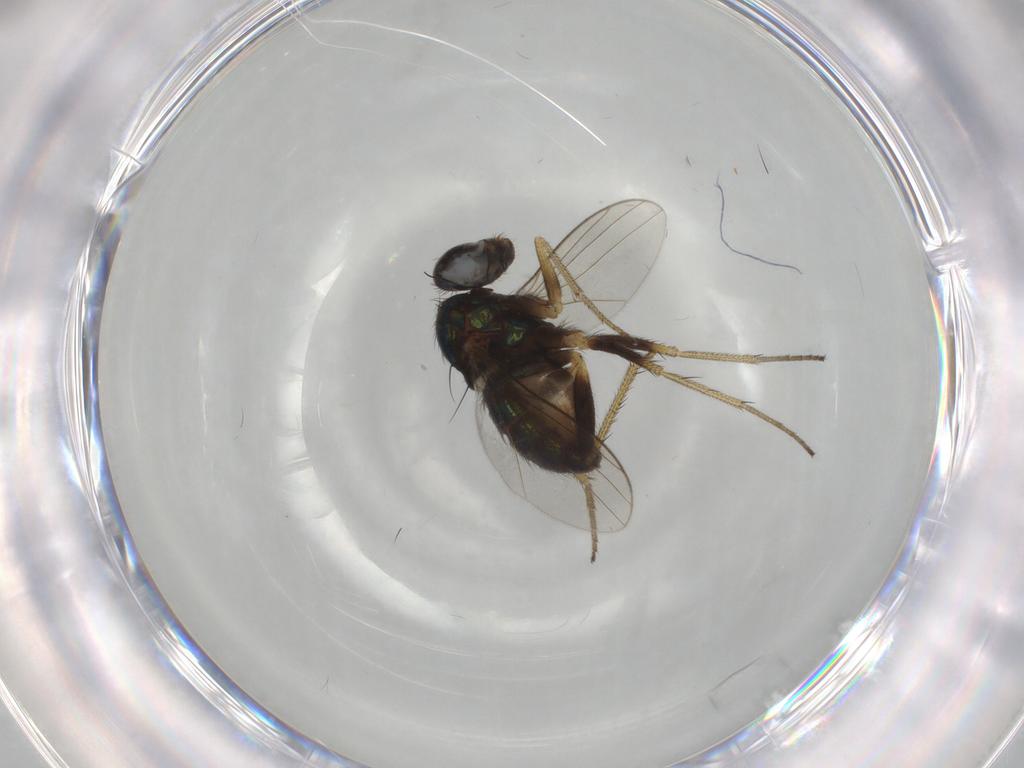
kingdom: Animalia
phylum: Arthropoda
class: Insecta
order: Diptera
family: Dolichopodidae
